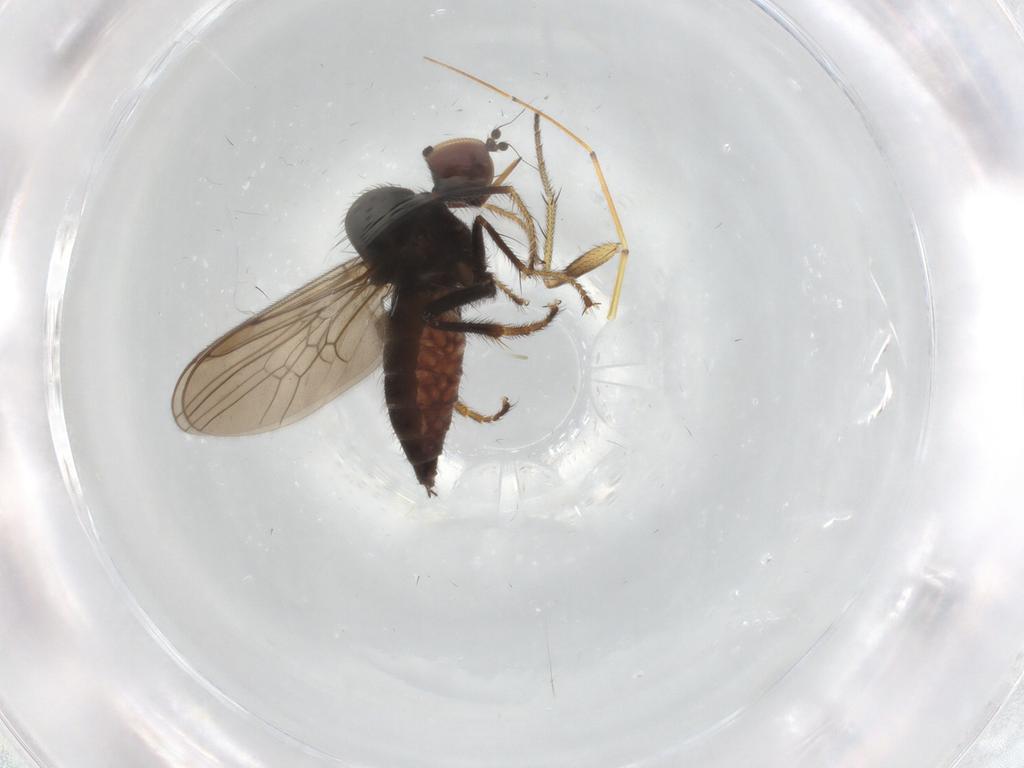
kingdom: Animalia
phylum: Arthropoda
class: Insecta
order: Diptera
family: Hybotidae
